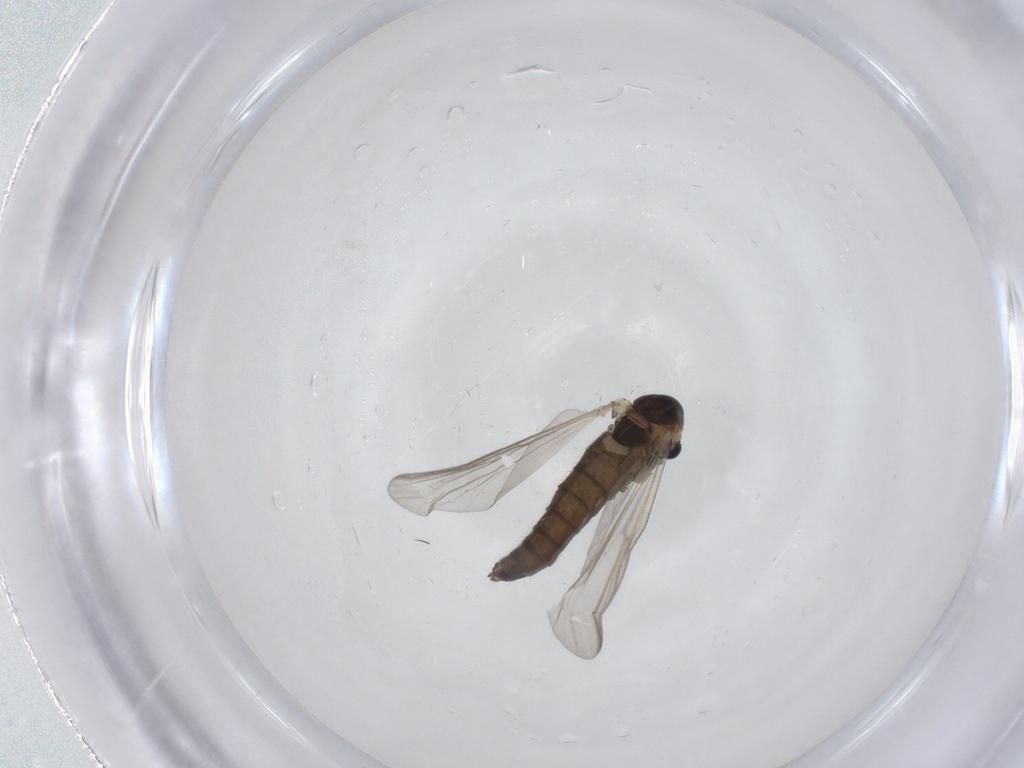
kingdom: Animalia
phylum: Arthropoda
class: Insecta
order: Diptera
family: Chironomidae
